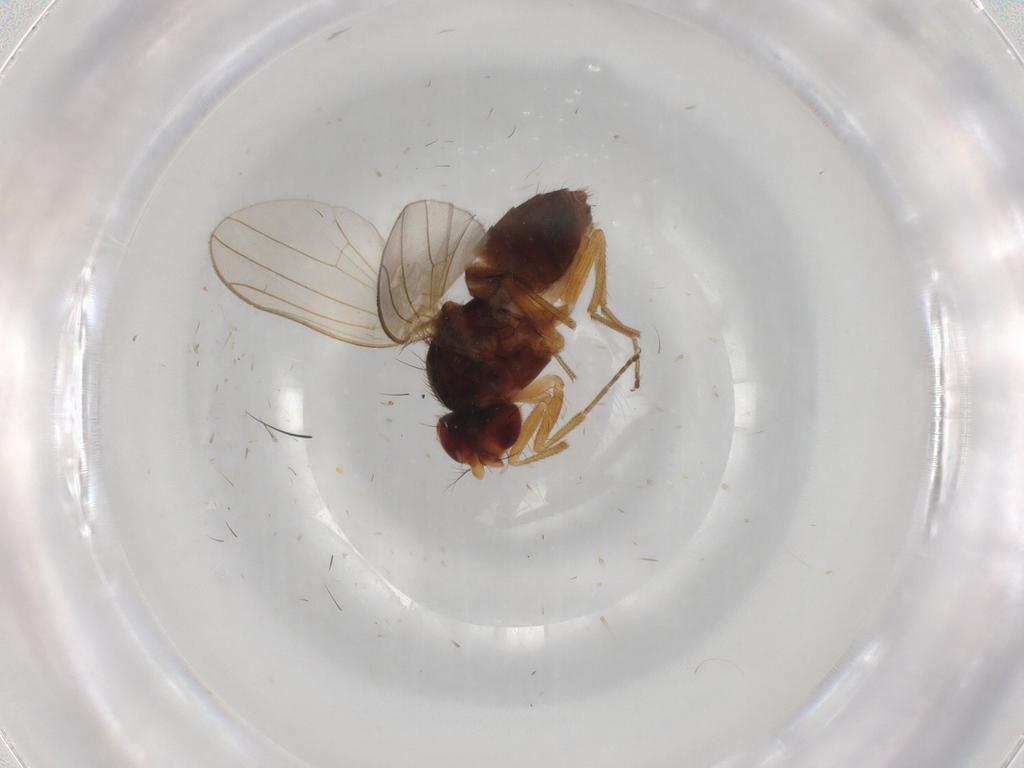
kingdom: Animalia
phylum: Arthropoda
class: Insecta
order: Diptera
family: Drosophilidae
